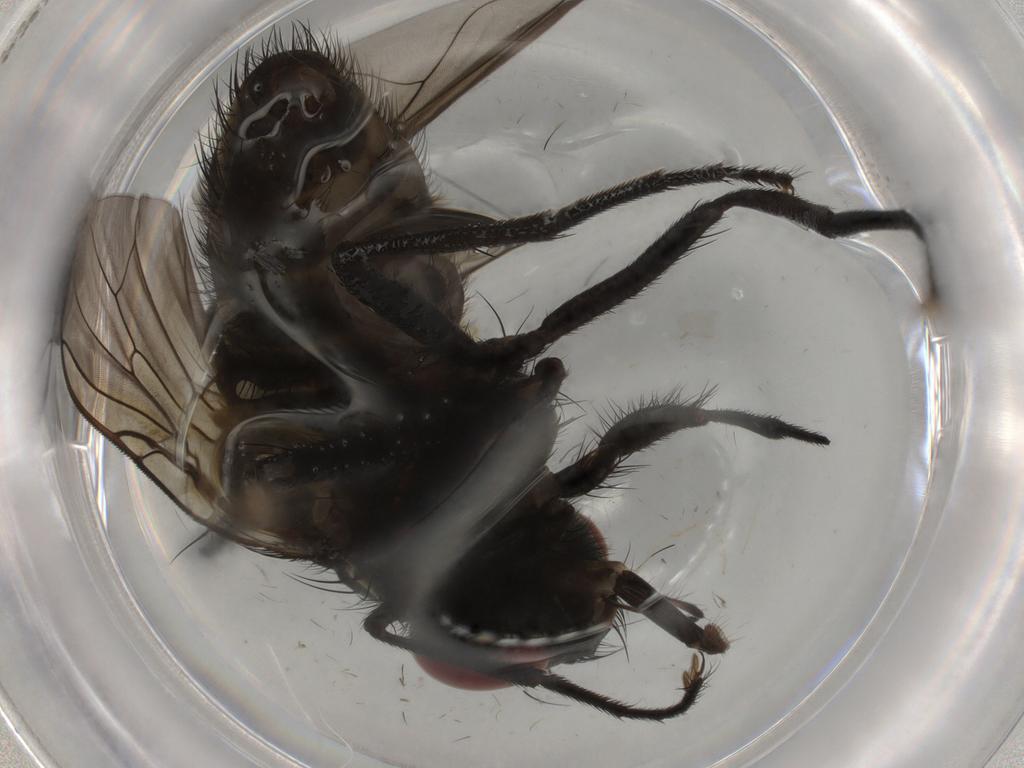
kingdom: Animalia
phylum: Arthropoda
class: Insecta
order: Diptera
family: Muscidae
